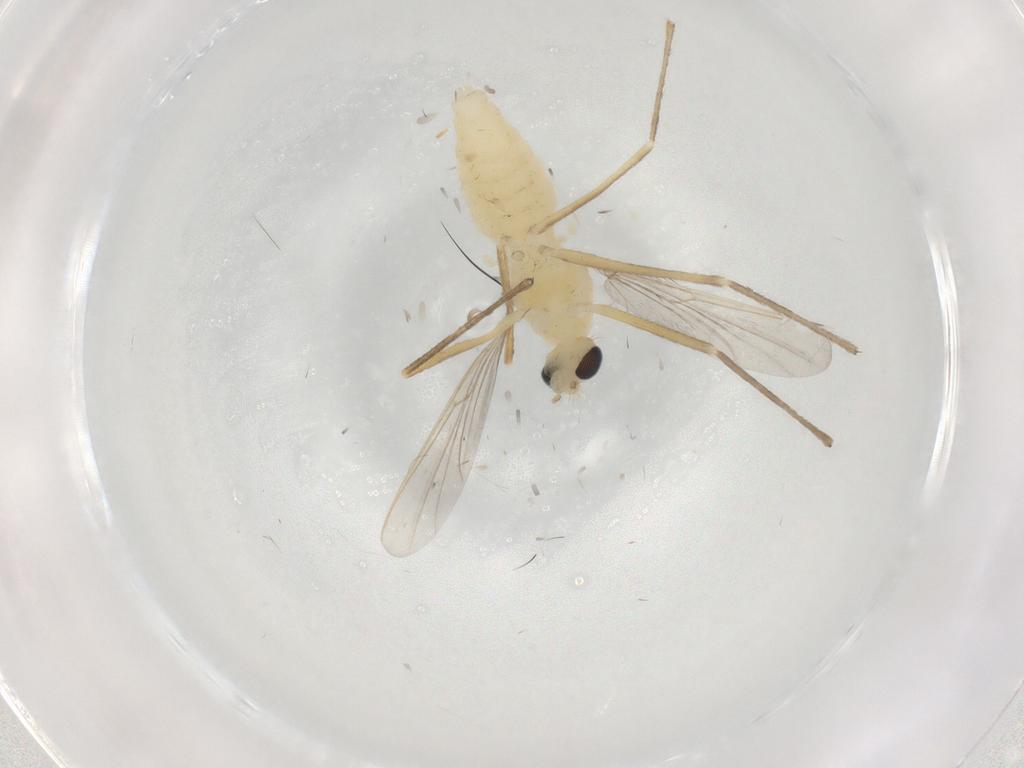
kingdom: Animalia
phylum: Arthropoda
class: Insecta
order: Diptera
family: Chironomidae
